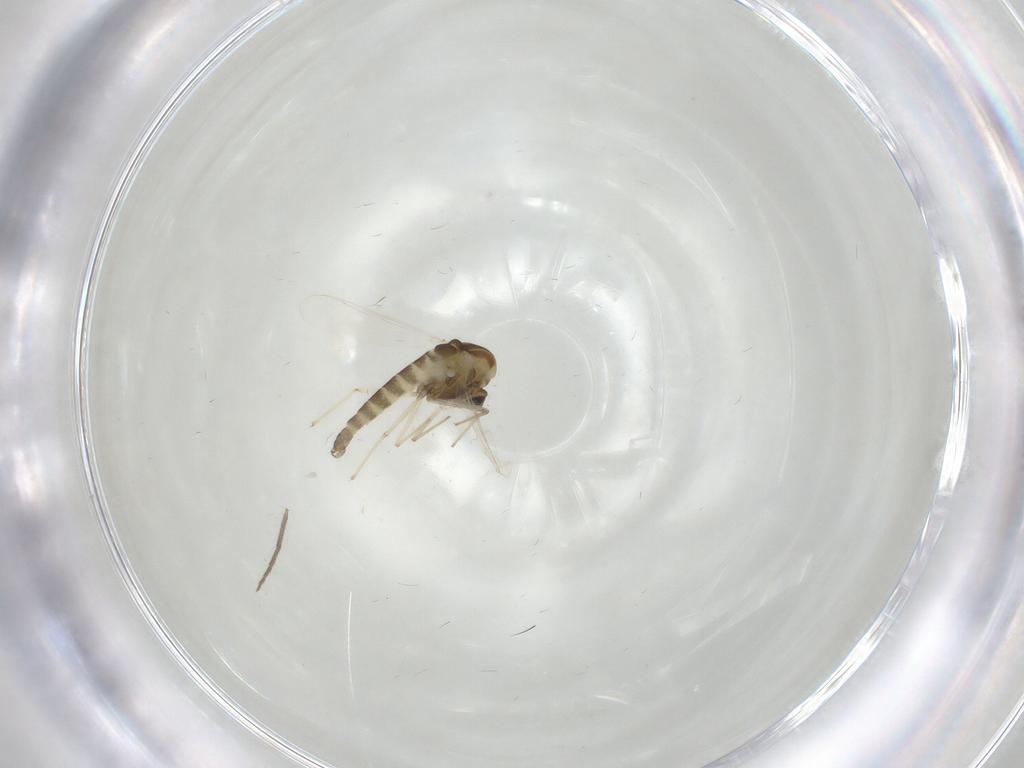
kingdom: Animalia
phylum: Arthropoda
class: Insecta
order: Diptera
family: Chironomidae
